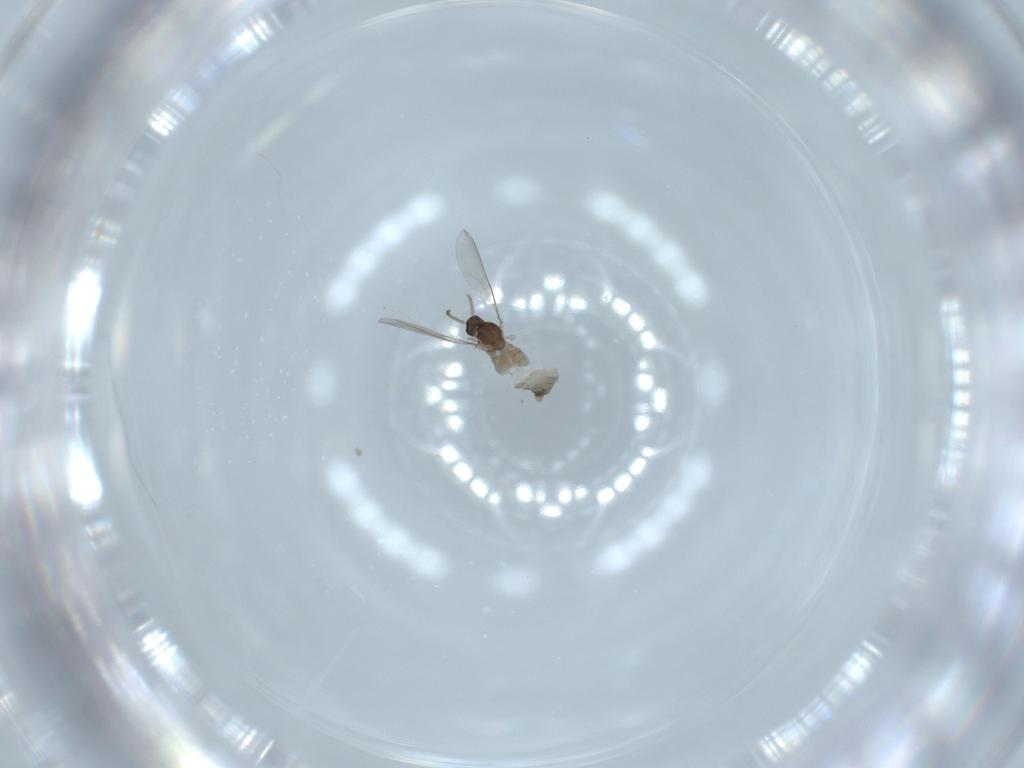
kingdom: Animalia
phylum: Arthropoda
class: Insecta
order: Diptera
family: Cecidomyiidae
